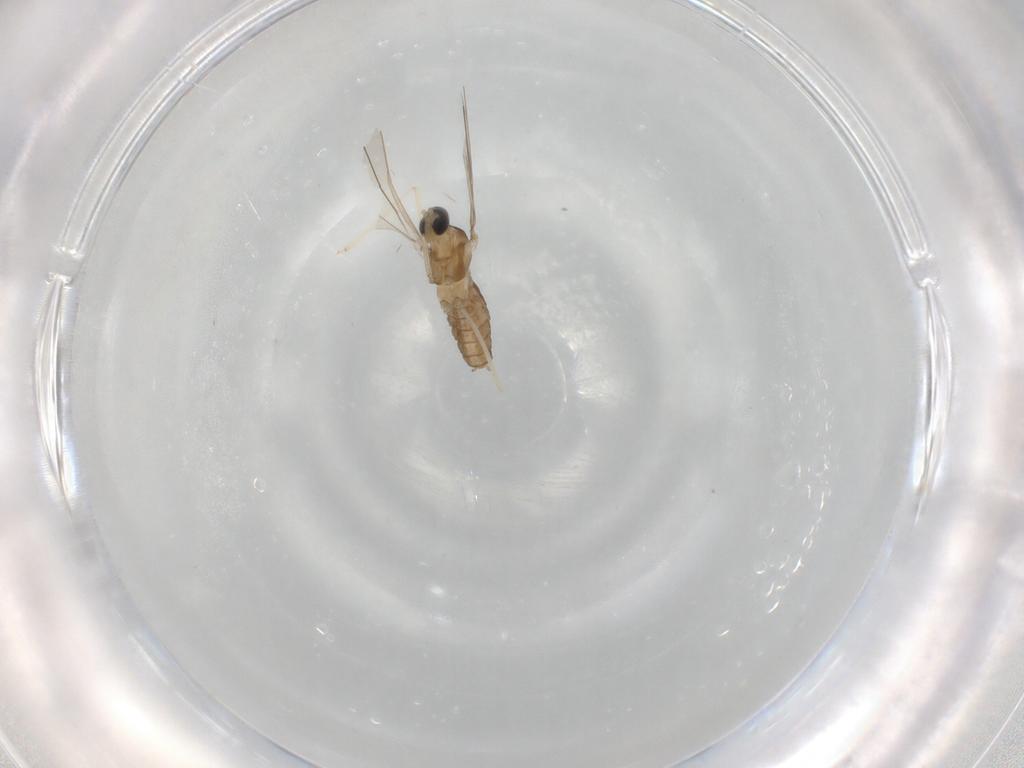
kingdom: Animalia
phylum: Arthropoda
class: Insecta
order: Diptera
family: Cecidomyiidae
